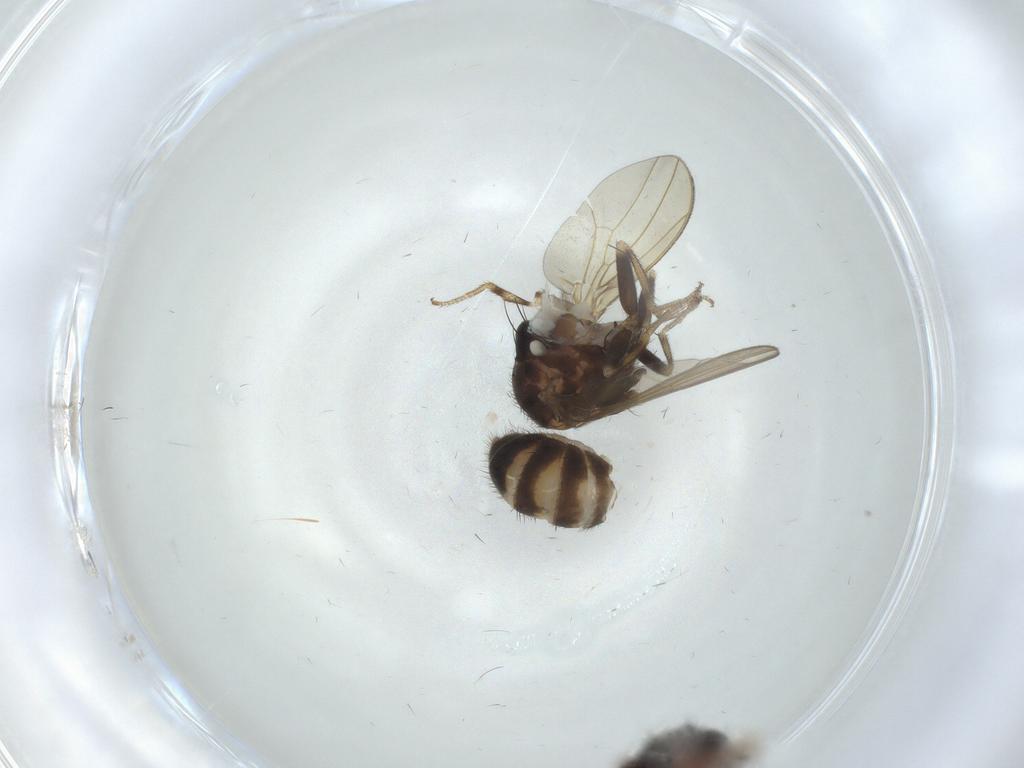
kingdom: Animalia
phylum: Arthropoda
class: Insecta
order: Diptera
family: Drosophilidae
